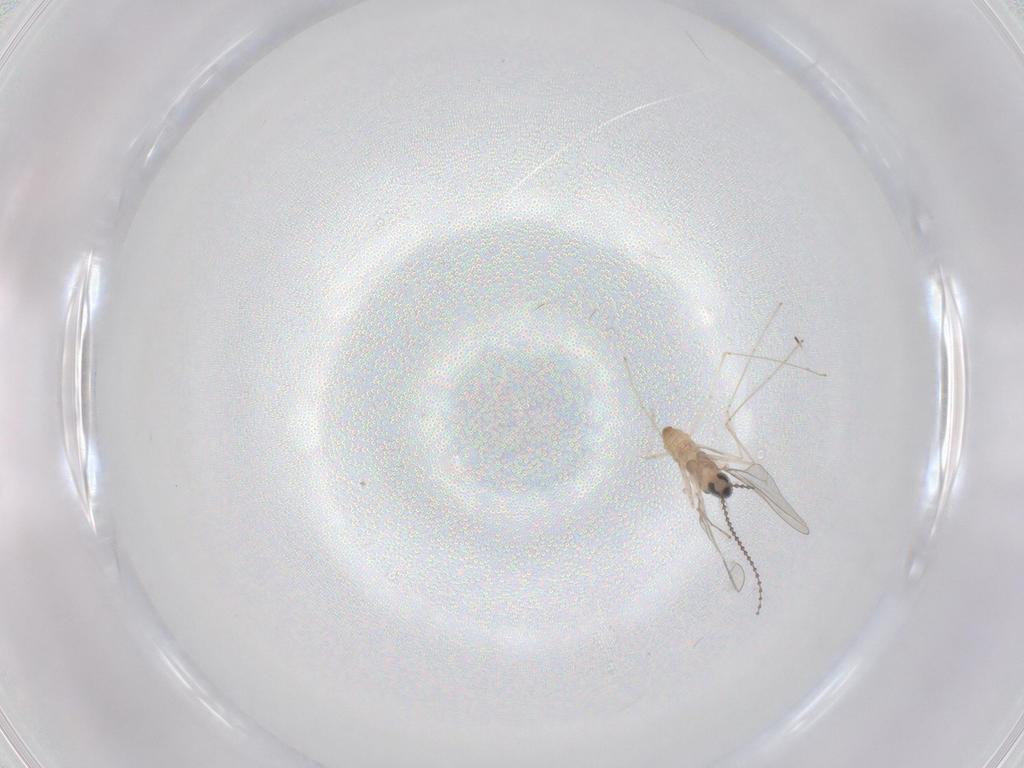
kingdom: Animalia
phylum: Arthropoda
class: Insecta
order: Diptera
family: Cecidomyiidae
